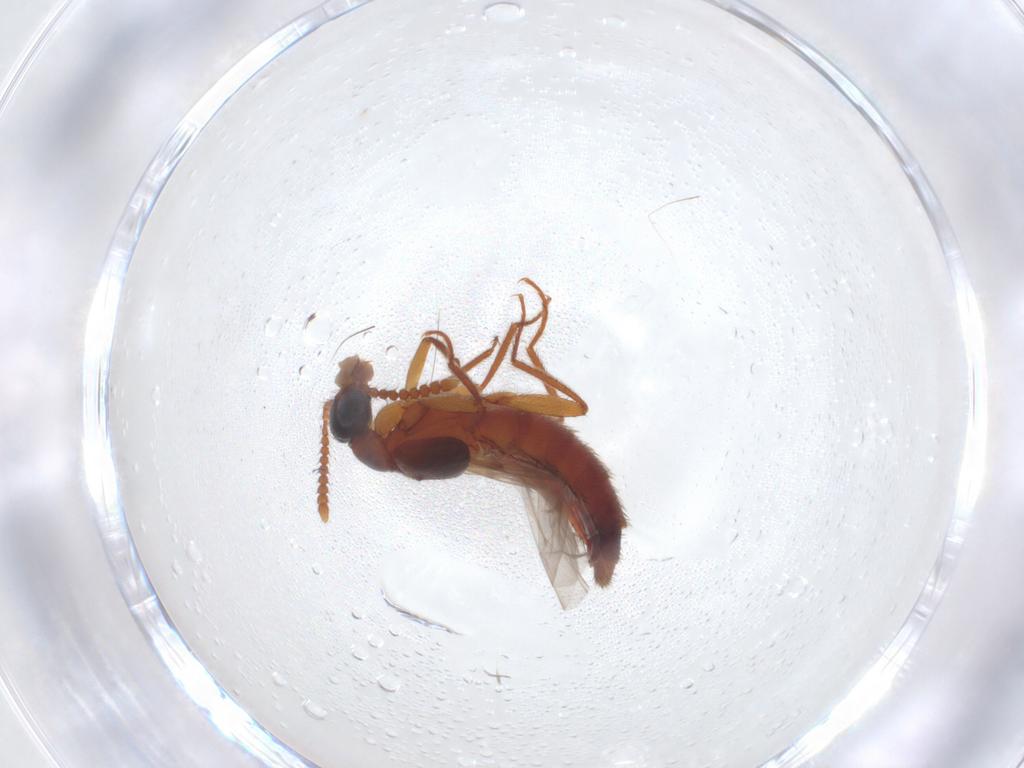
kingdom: Animalia
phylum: Arthropoda
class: Insecta
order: Coleoptera
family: Staphylinidae
